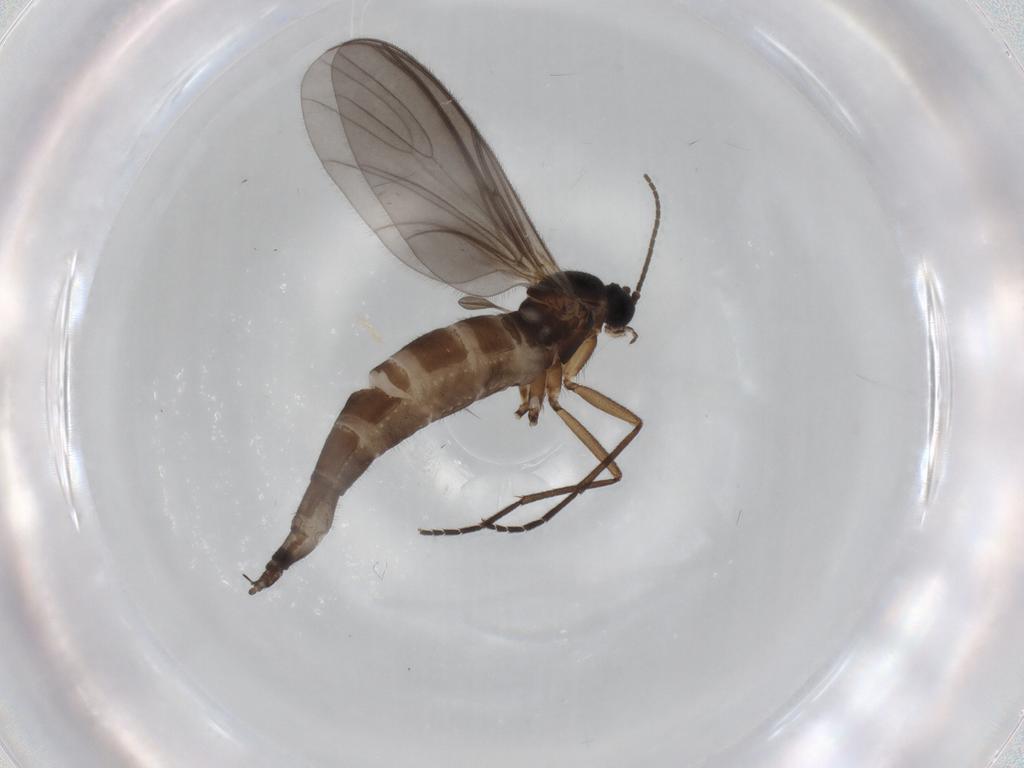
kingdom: Animalia
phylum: Arthropoda
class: Insecta
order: Diptera
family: Sciaridae
